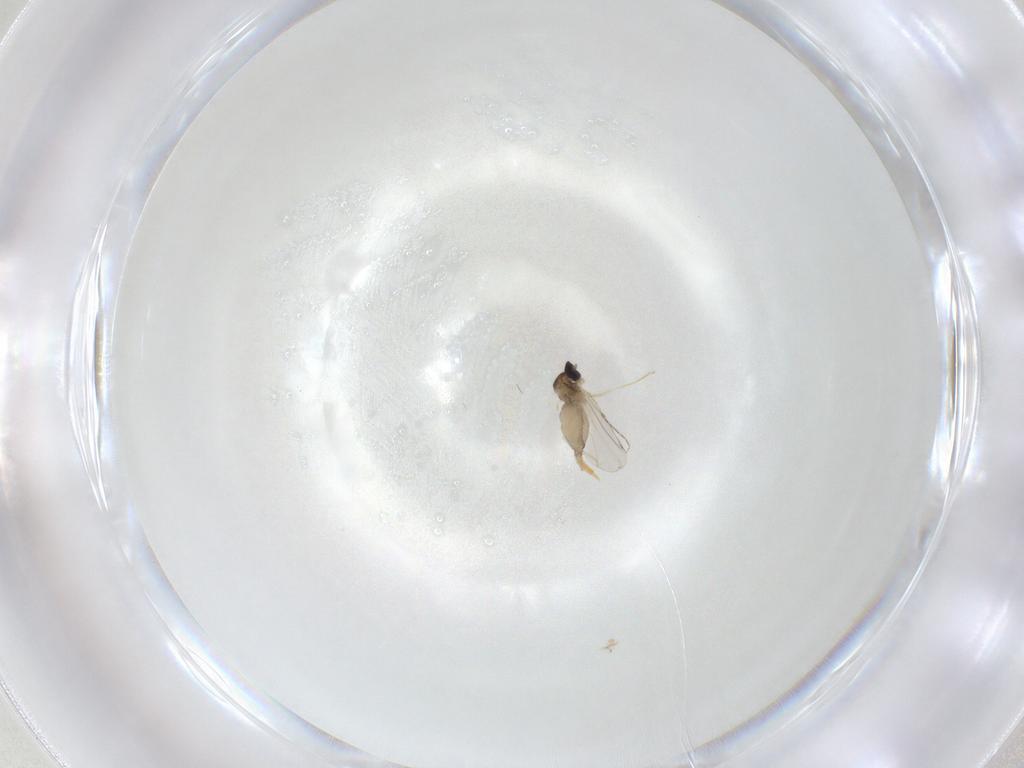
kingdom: Animalia
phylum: Arthropoda
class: Insecta
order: Diptera
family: Cecidomyiidae
